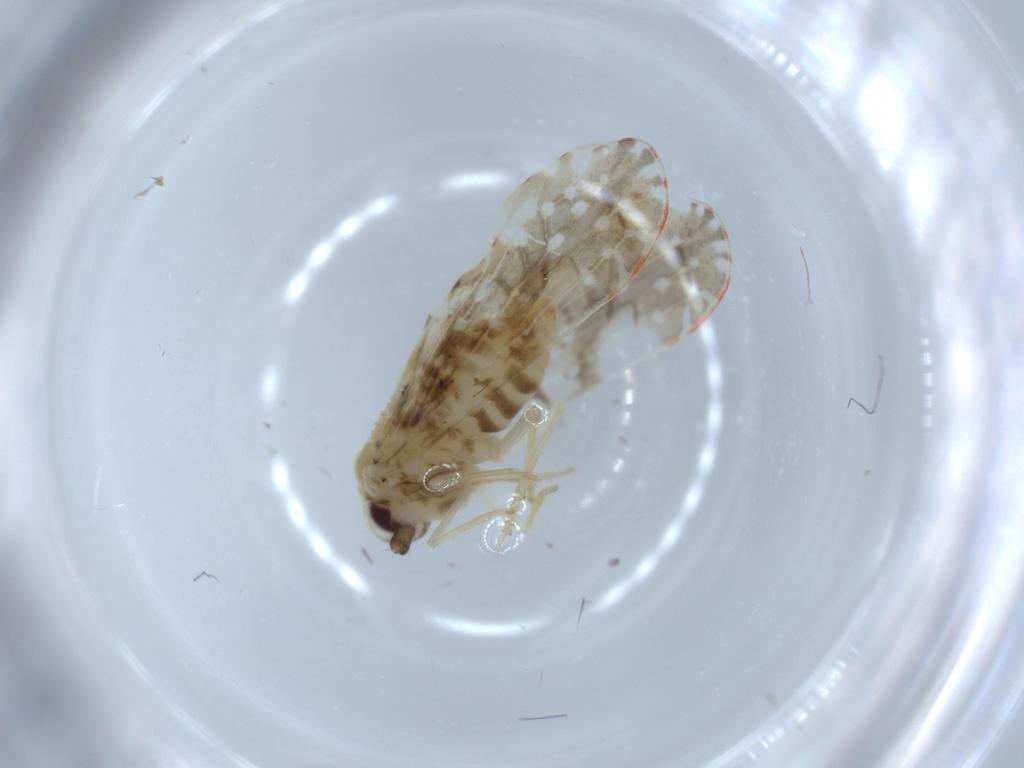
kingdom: Animalia
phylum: Arthropoda
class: Insecta
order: Hemiptera
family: Derbidae
